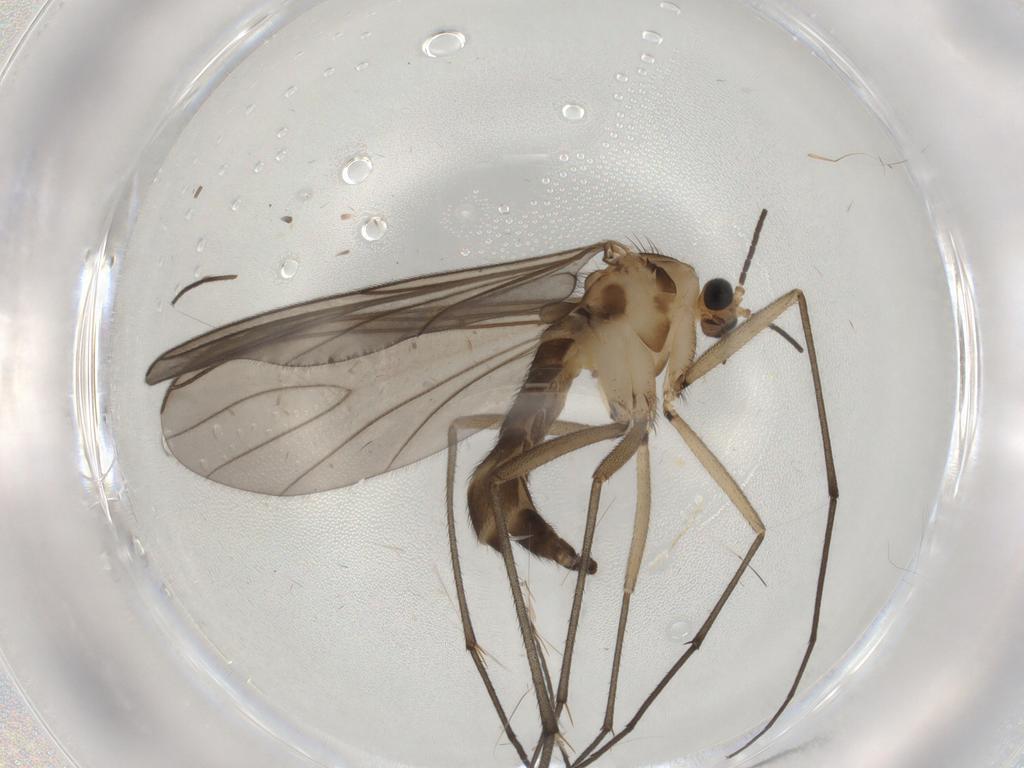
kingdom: Animalia
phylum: Arthropoda
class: Insecta
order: Diptera
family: Sciaridae
